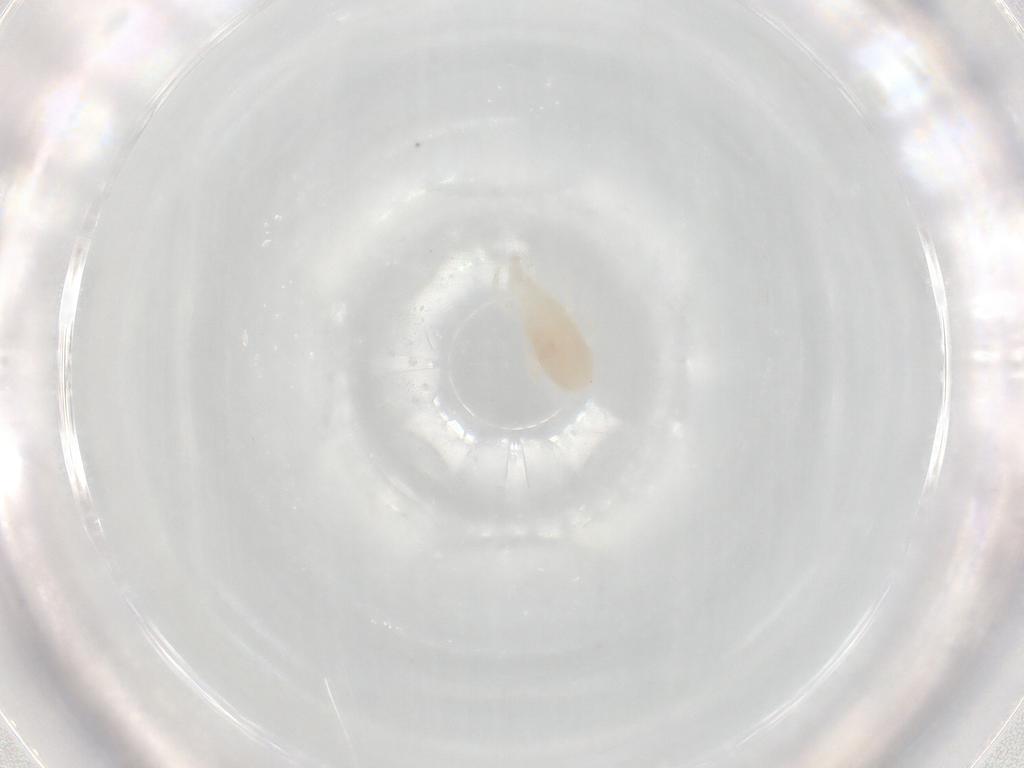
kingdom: Animalia
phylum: Arthropoda
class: Arachnida
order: Trombidiformes
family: Rhagidiidae
